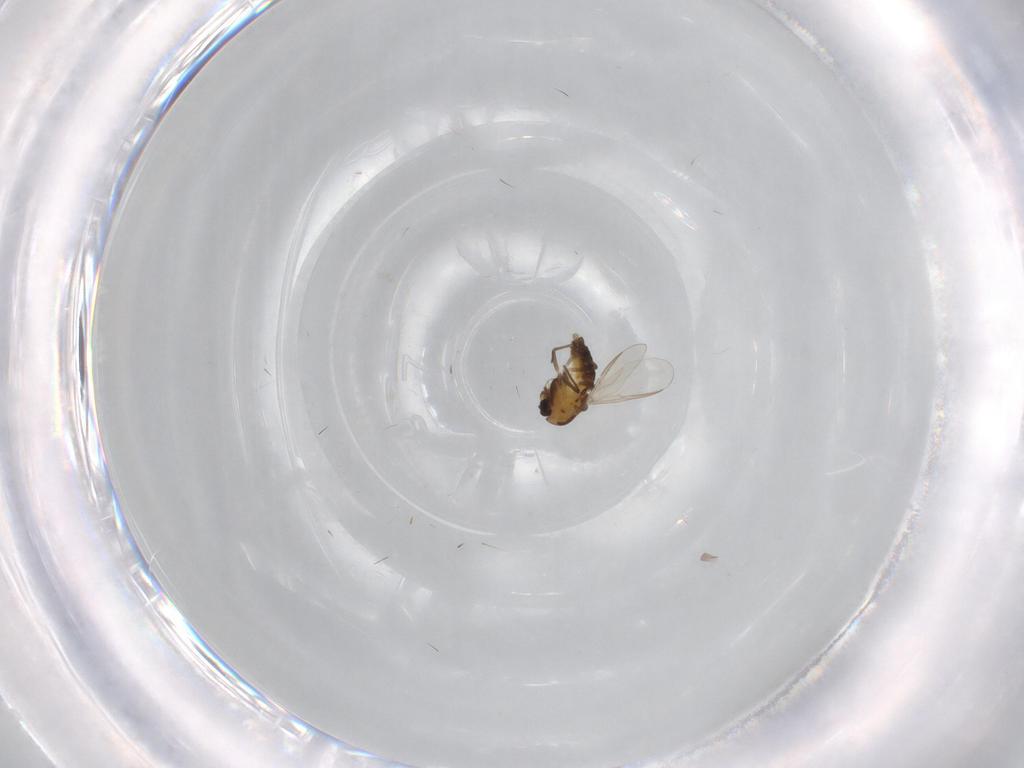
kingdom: Animalia
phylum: Arthropoda
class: Insecta
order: Diptera
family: Chironomidae
